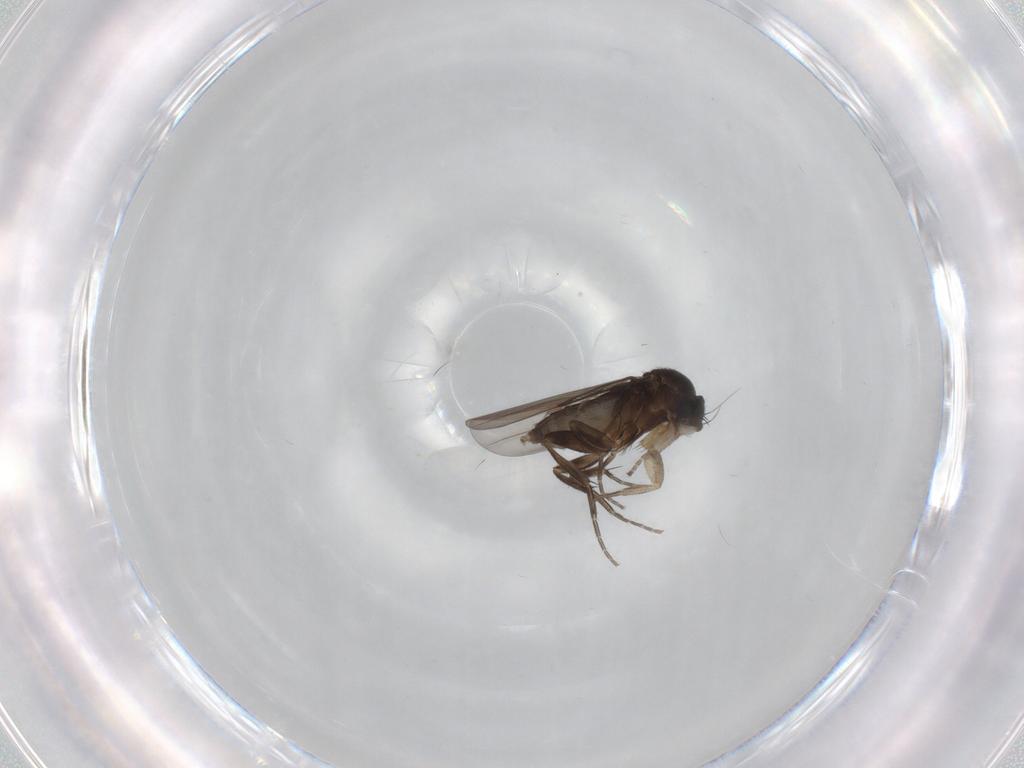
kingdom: Animalia
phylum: Arthropoda
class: Insecta
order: Diptera
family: Phoridae
